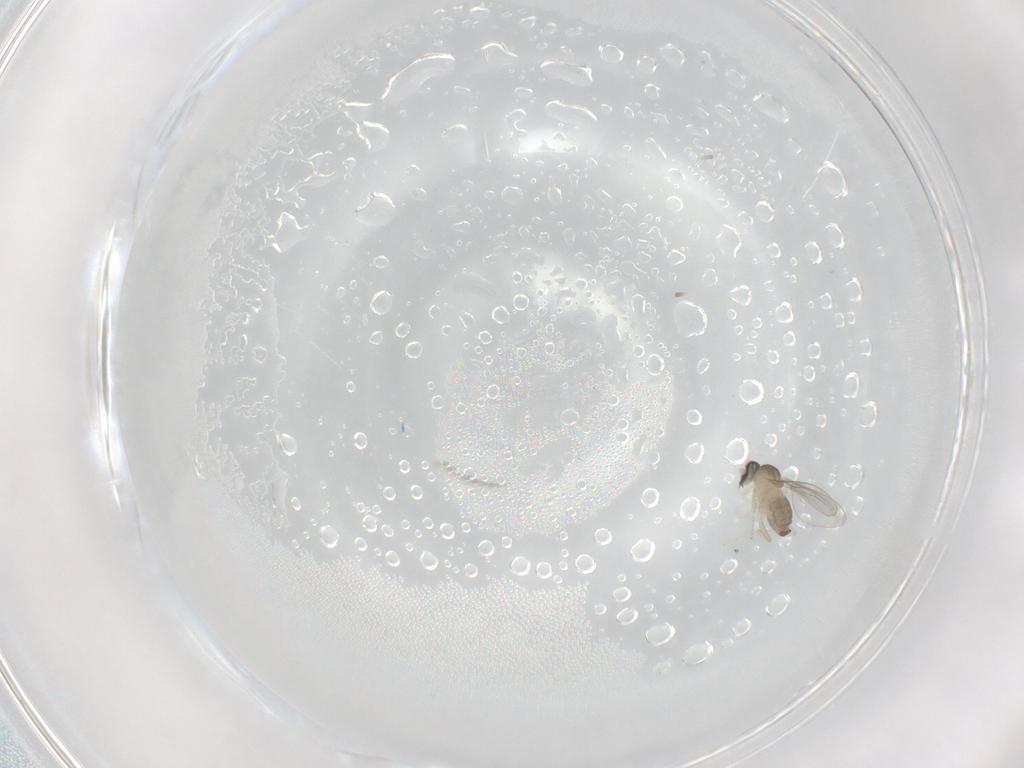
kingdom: Animalia
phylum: Arthropoda
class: Insecta
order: Diptera
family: Cecidomyiidae
